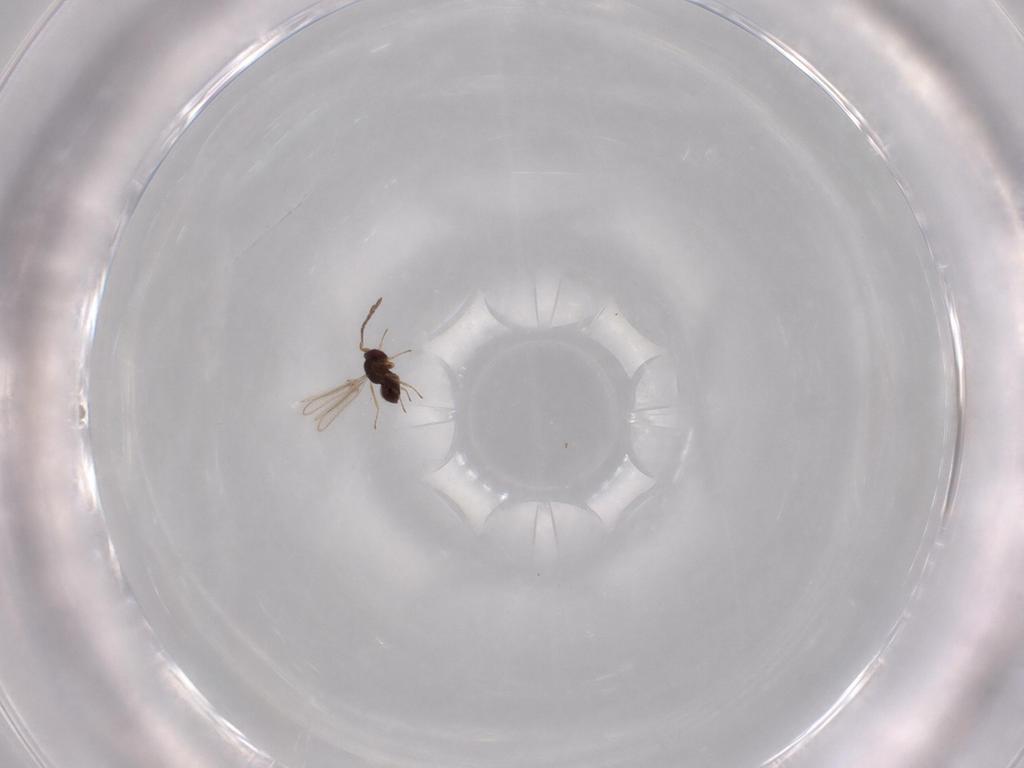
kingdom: Animalia
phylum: Arthropoda
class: Insecta
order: Hymenoptera
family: Mymaridae
